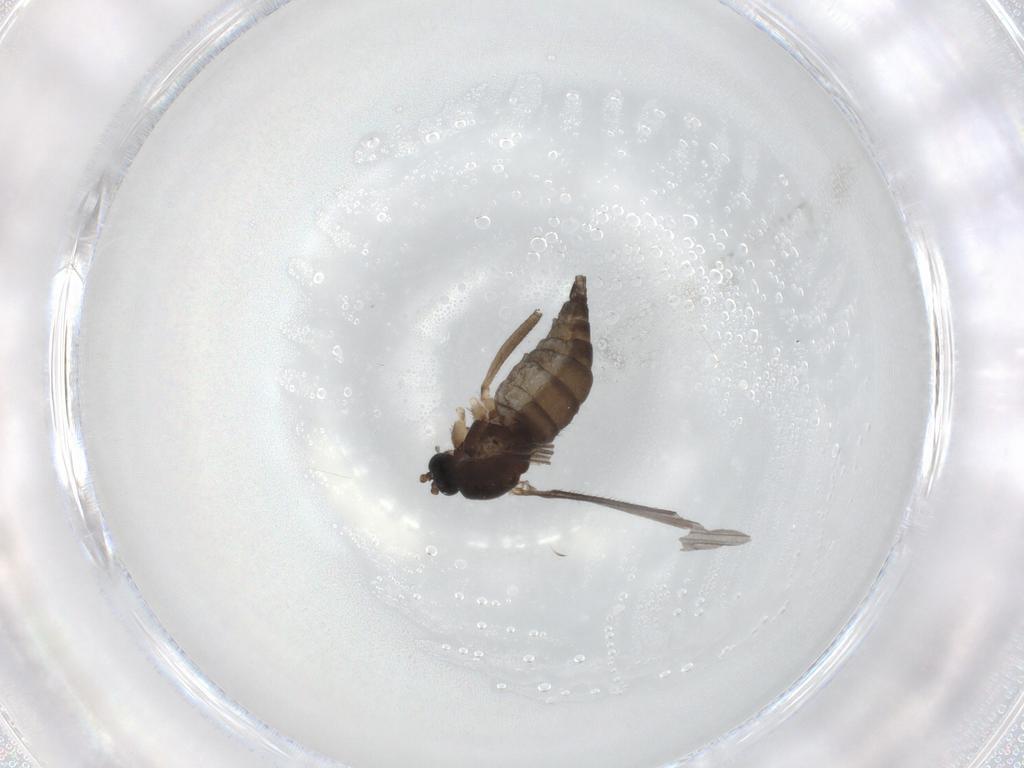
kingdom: Animalia
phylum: Arthropoda
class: Insecta
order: Diptera
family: Sciaridae
